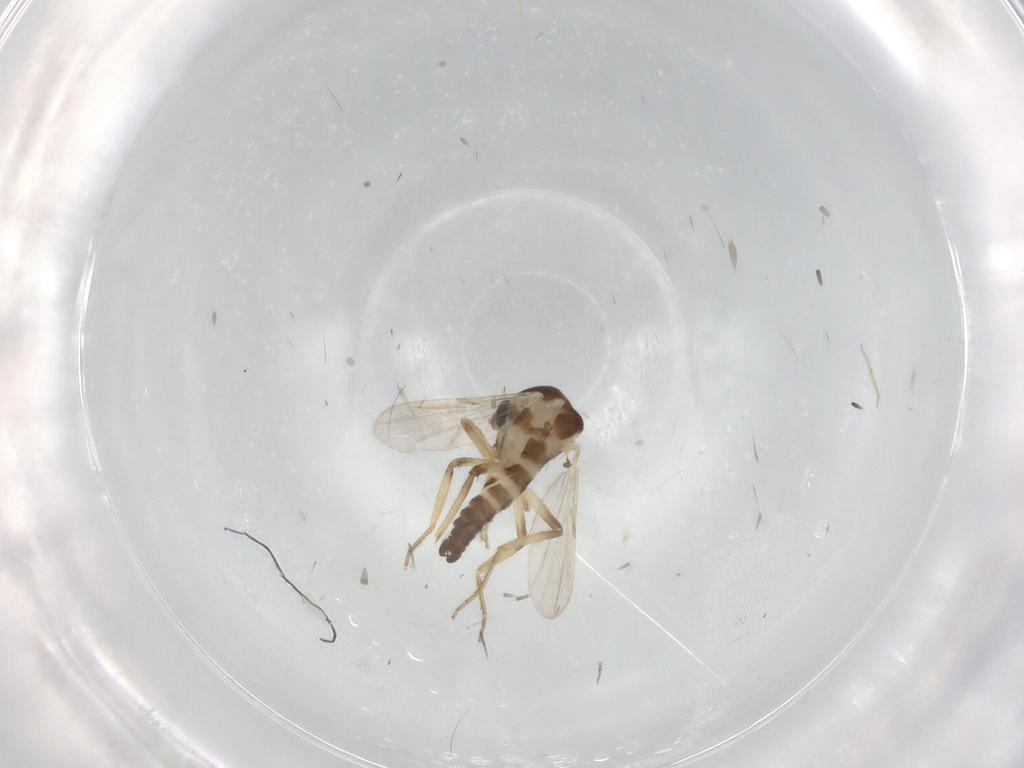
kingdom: Animalia
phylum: Arthropoda
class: Insecta
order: Diptera
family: Ceratopogonidae
